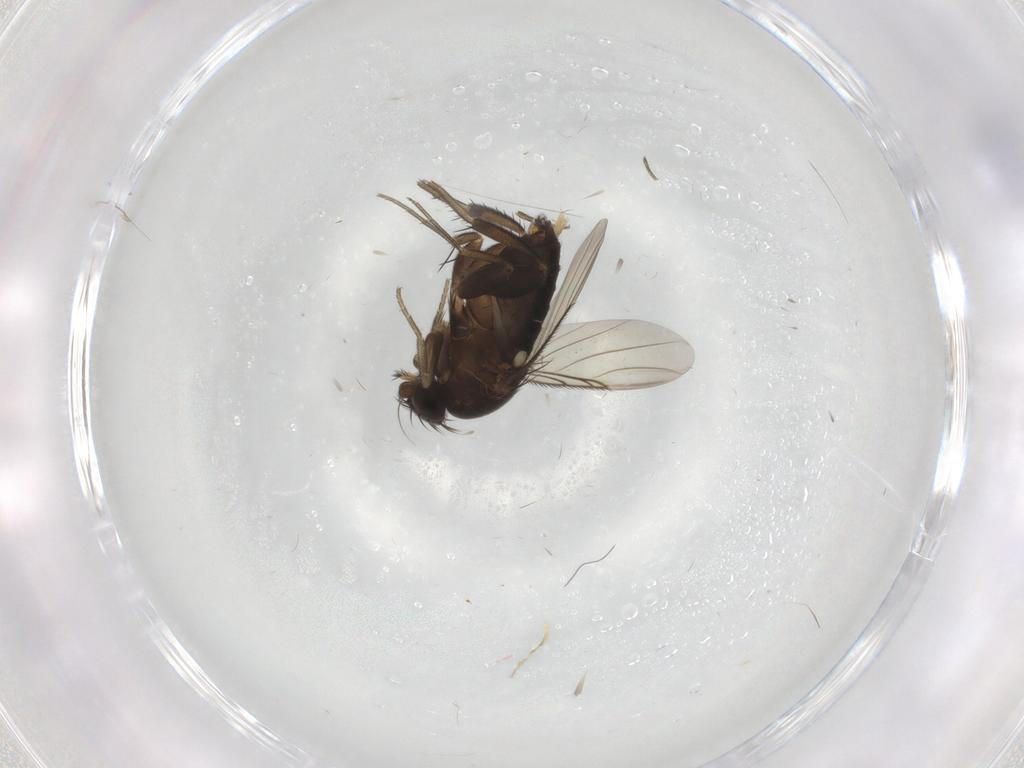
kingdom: Animalia
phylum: Arthropoda
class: Insecta
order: Diptera
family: Phoridae
